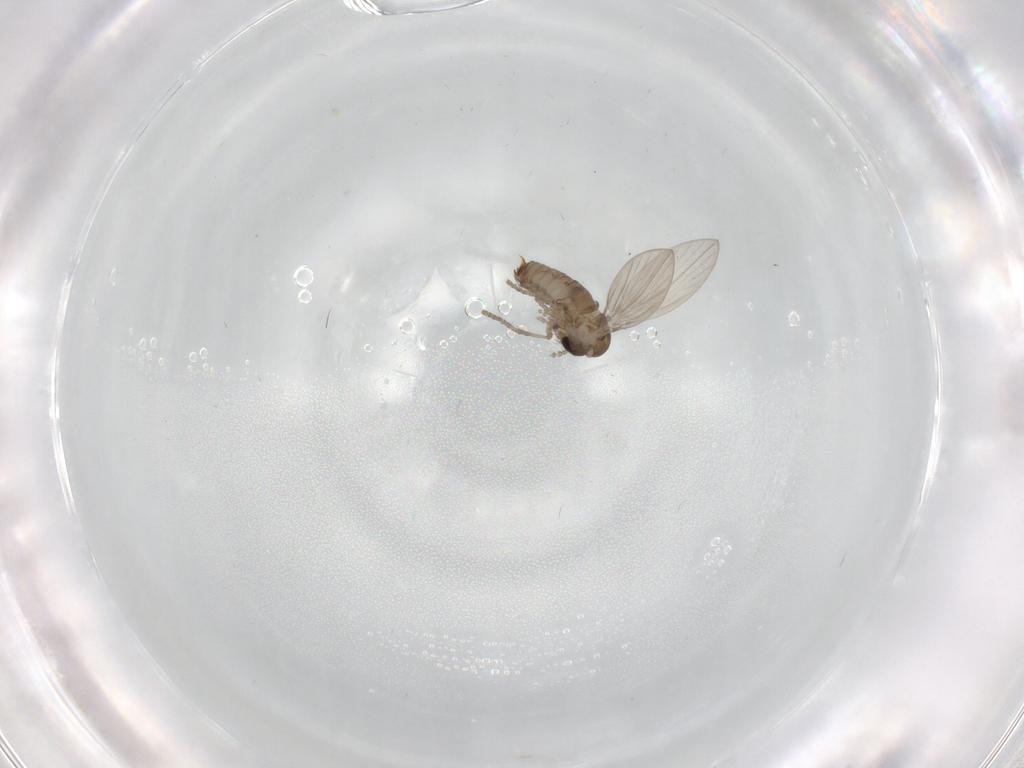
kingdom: Animalia
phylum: Arthropoda
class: Insecta
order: Diptera
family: Psychodidae
